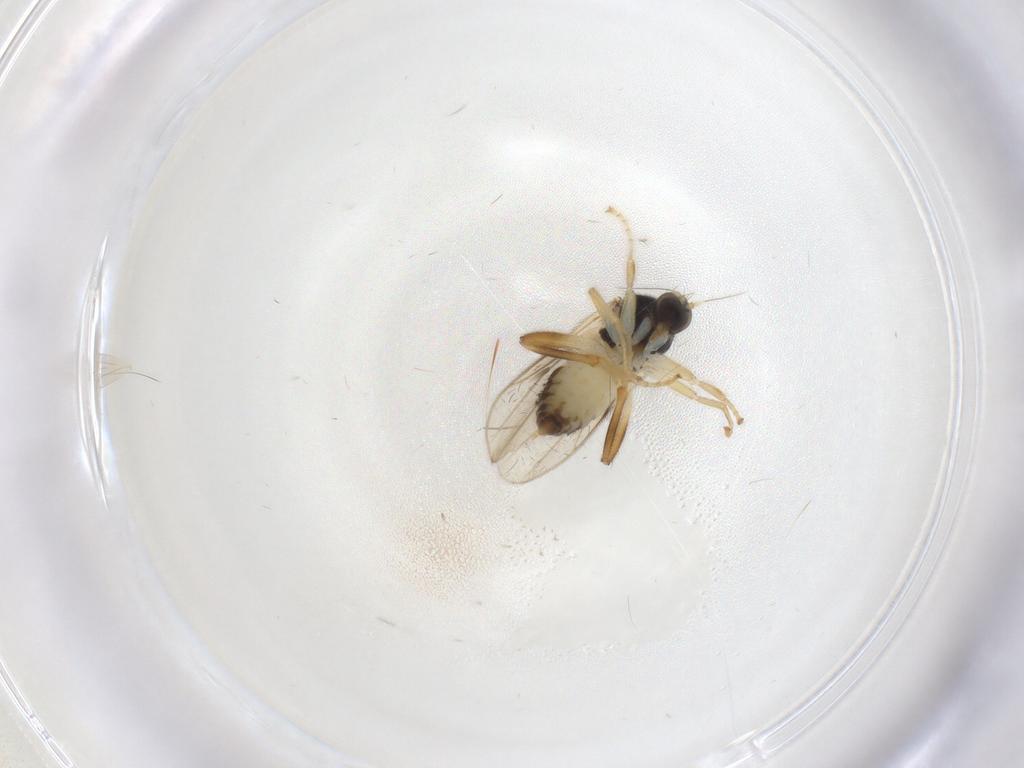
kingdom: Animalia
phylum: Arthropoda
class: Insecta
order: Diptera
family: Hybotidae
